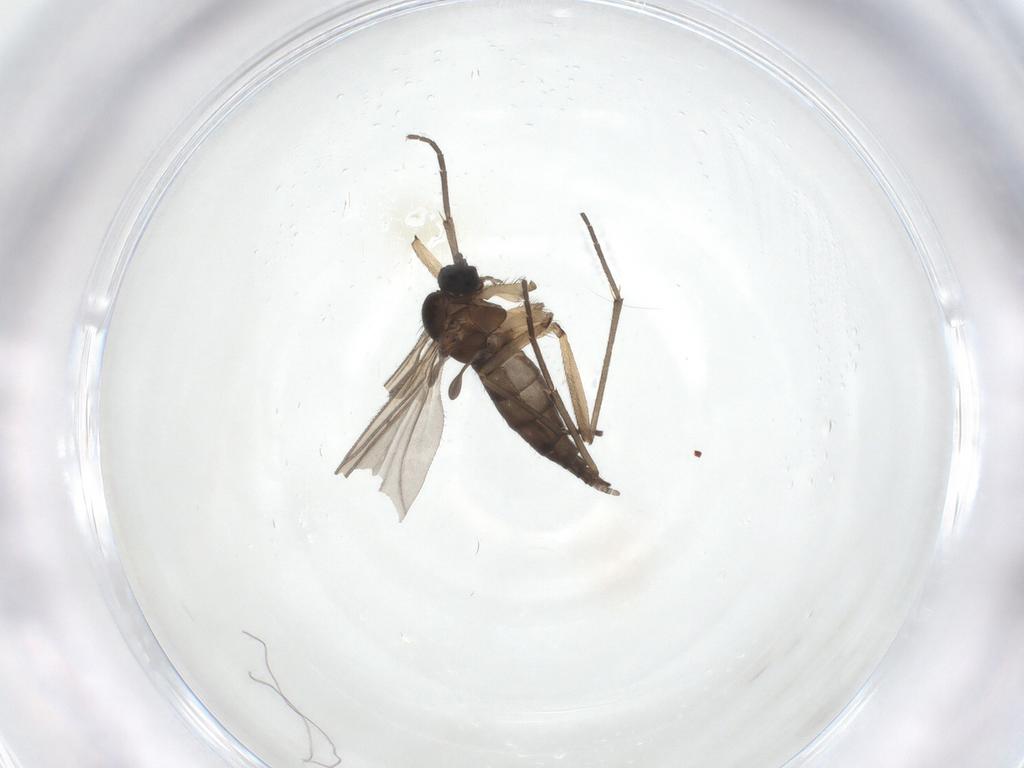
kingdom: Animalia
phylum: Arthropoda
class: Insecta
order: Diptera
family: Sciaridae
